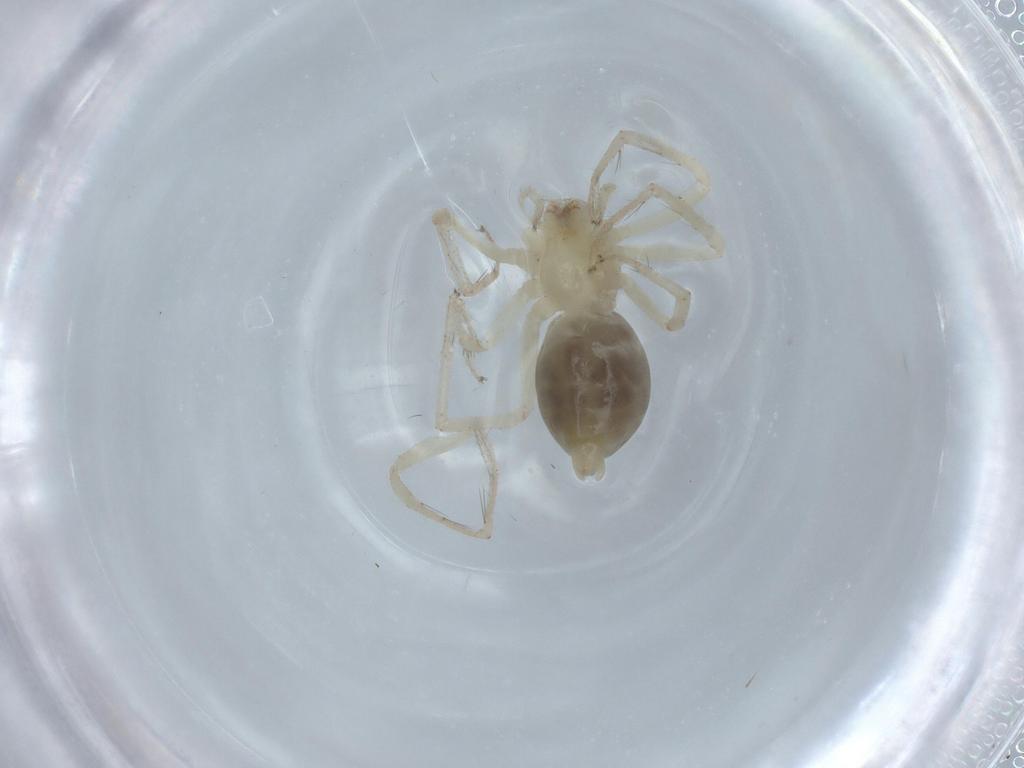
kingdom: Animalia
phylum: Arthropoda
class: Arachnida
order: Araneae
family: Anyphaenidae
